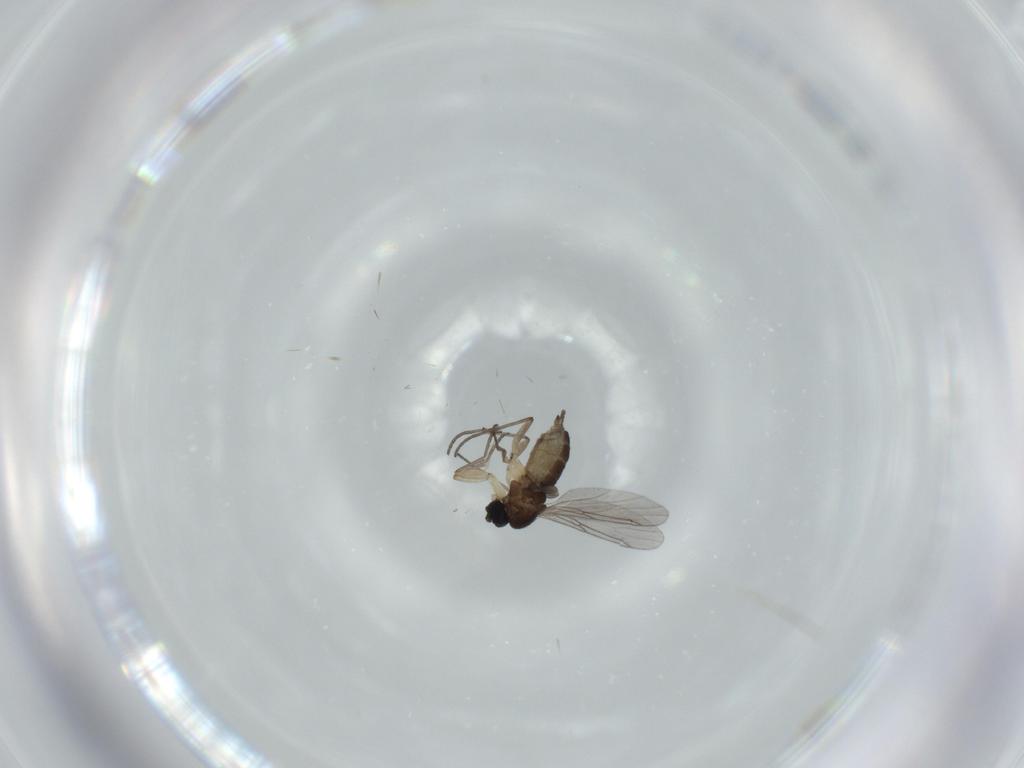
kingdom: Animalia
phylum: Arthropoda
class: Insecta
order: Diptera
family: Sciaridae
